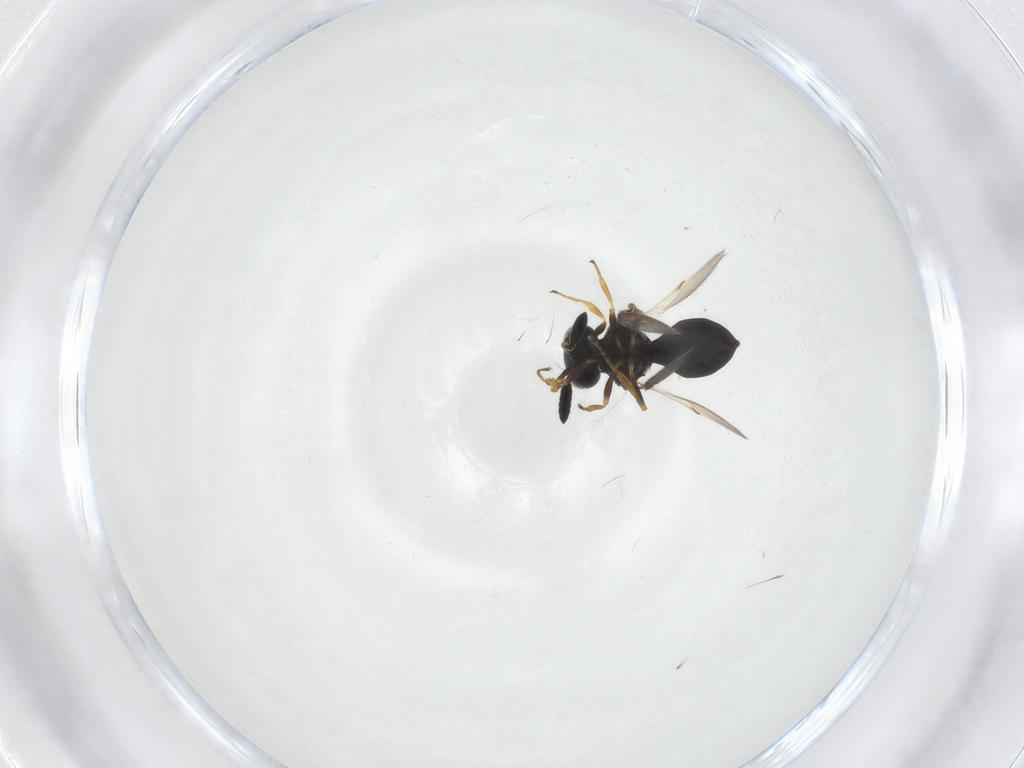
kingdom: Animalia
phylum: Arthropoda
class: Insecta
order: Hymenoptera
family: Scelionidae
